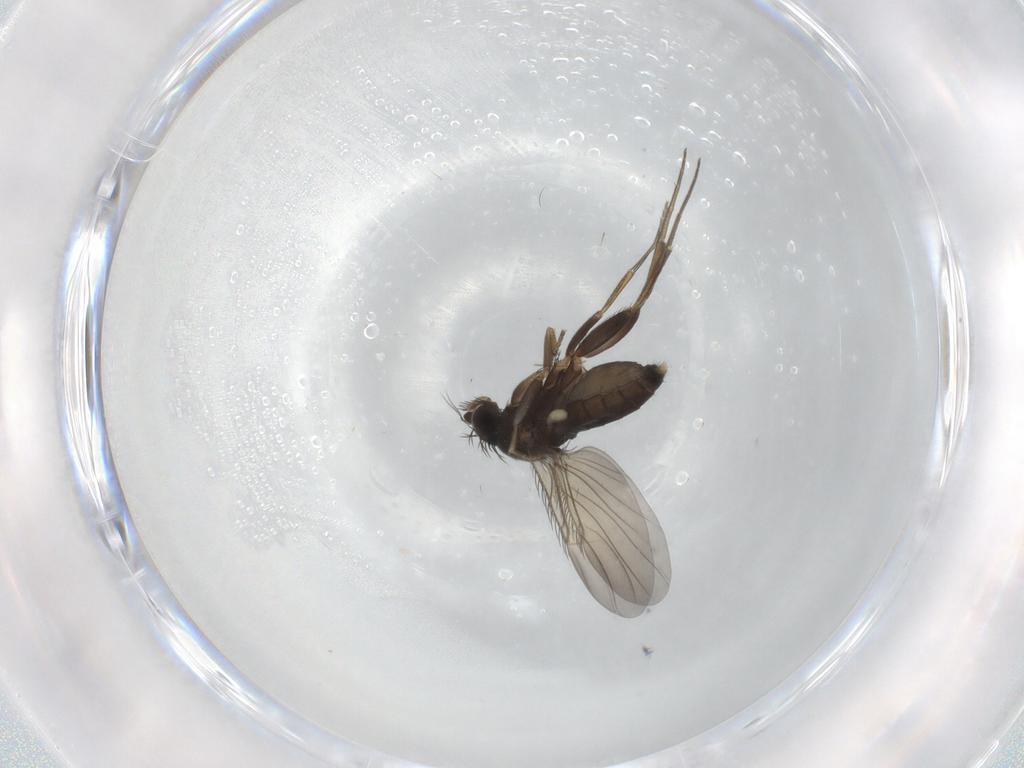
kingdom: Animalia
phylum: Arthropoda
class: Insecta
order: Diptera
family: Phoridae
